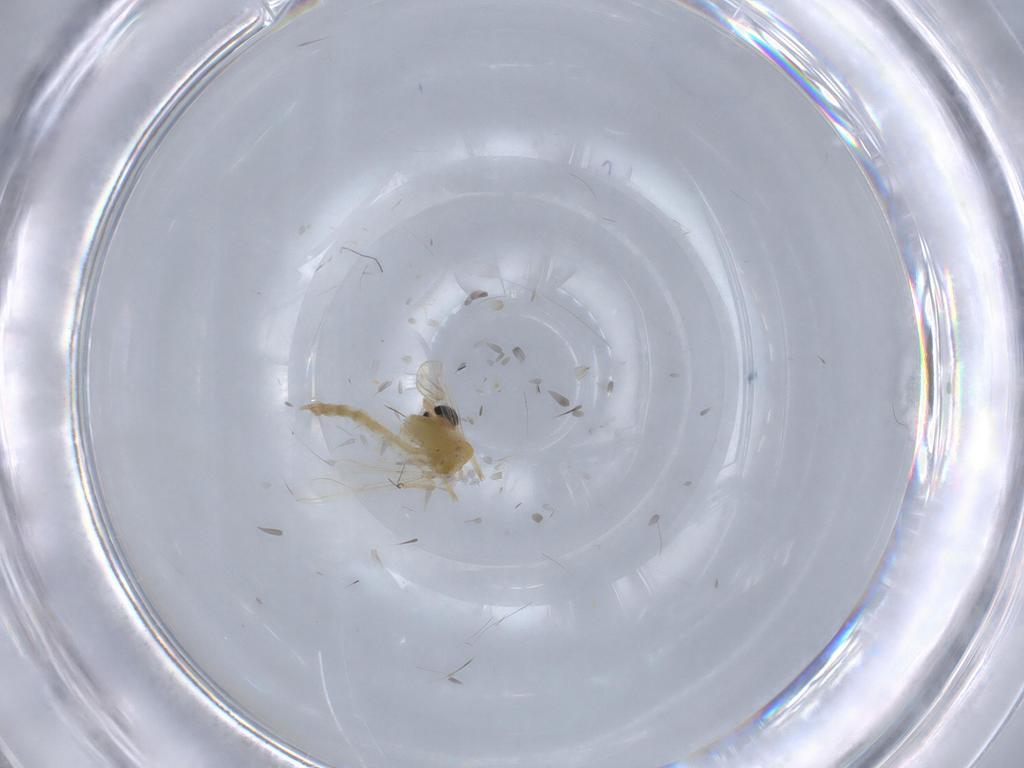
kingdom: Animalia
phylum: Arthropoda
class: Insecta
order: Diptera
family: Chironomidae
